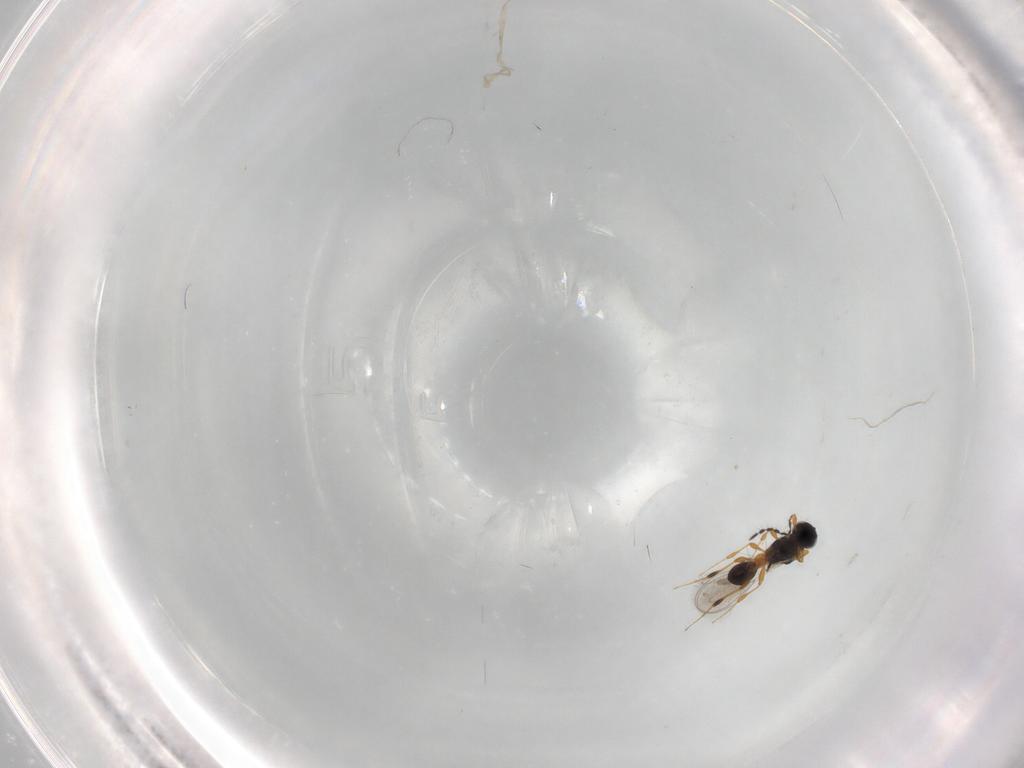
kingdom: Animalia
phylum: Arthropoda
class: Insecta
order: Hymenoptera
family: Platygastridae
